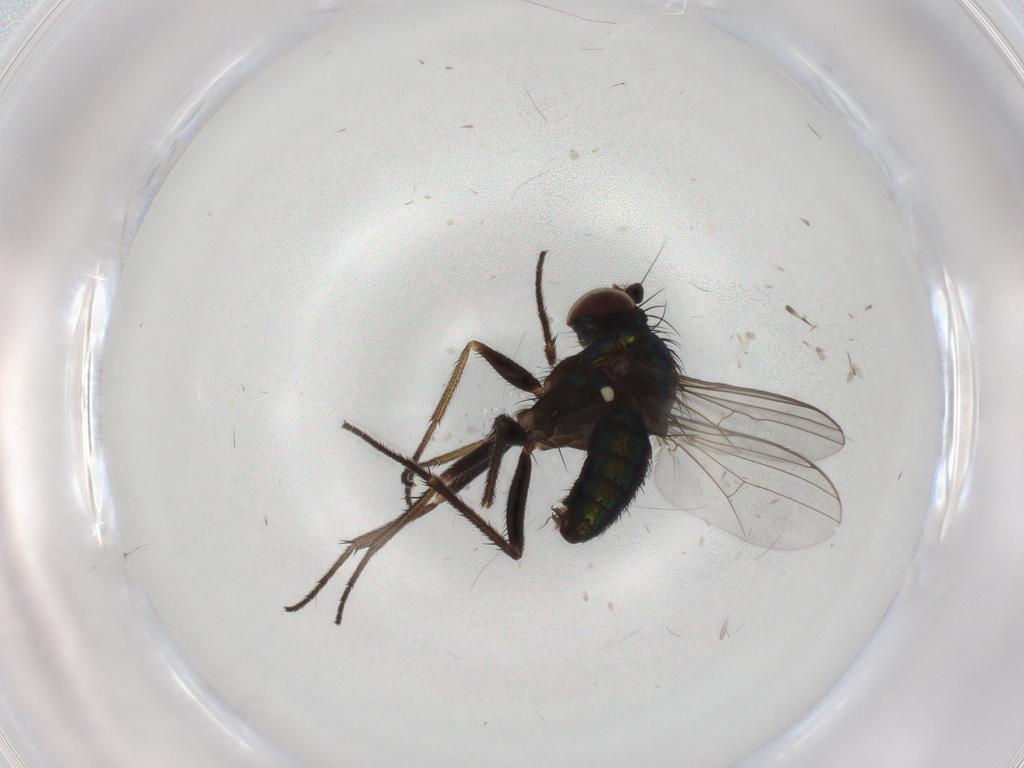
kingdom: Animalia
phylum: Arthropoda
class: Insecta
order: Diptera
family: Dolichopodidae
